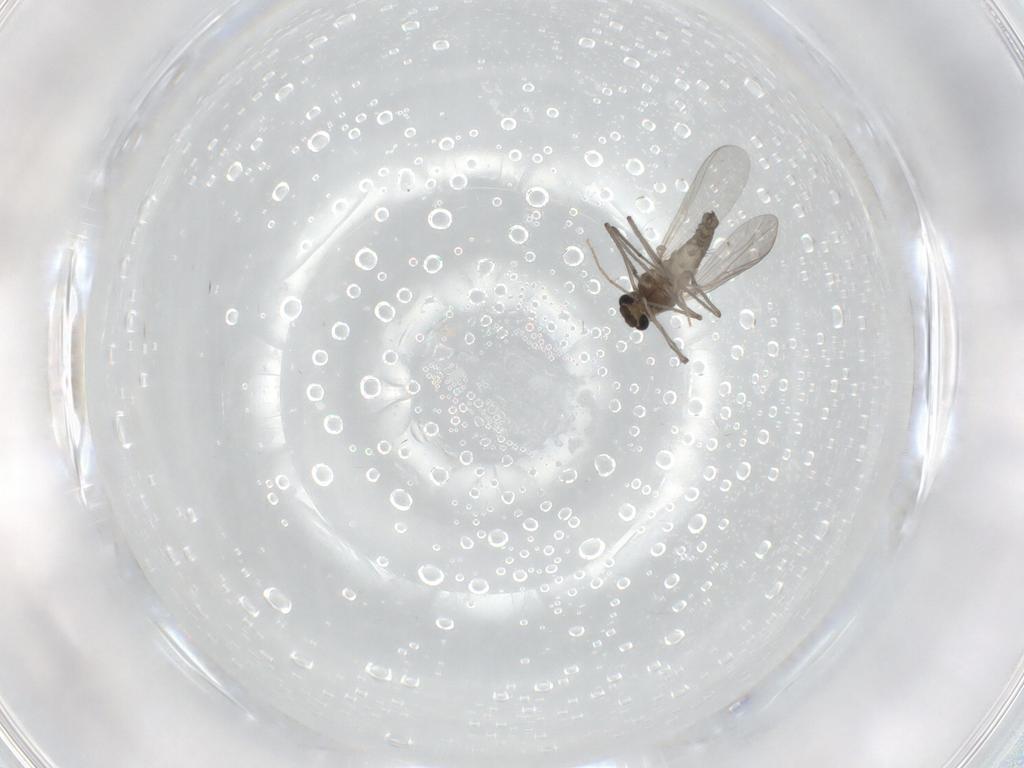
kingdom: Animalia
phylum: Arthropoda
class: Insecta
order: Diptera
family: Chironomidae
